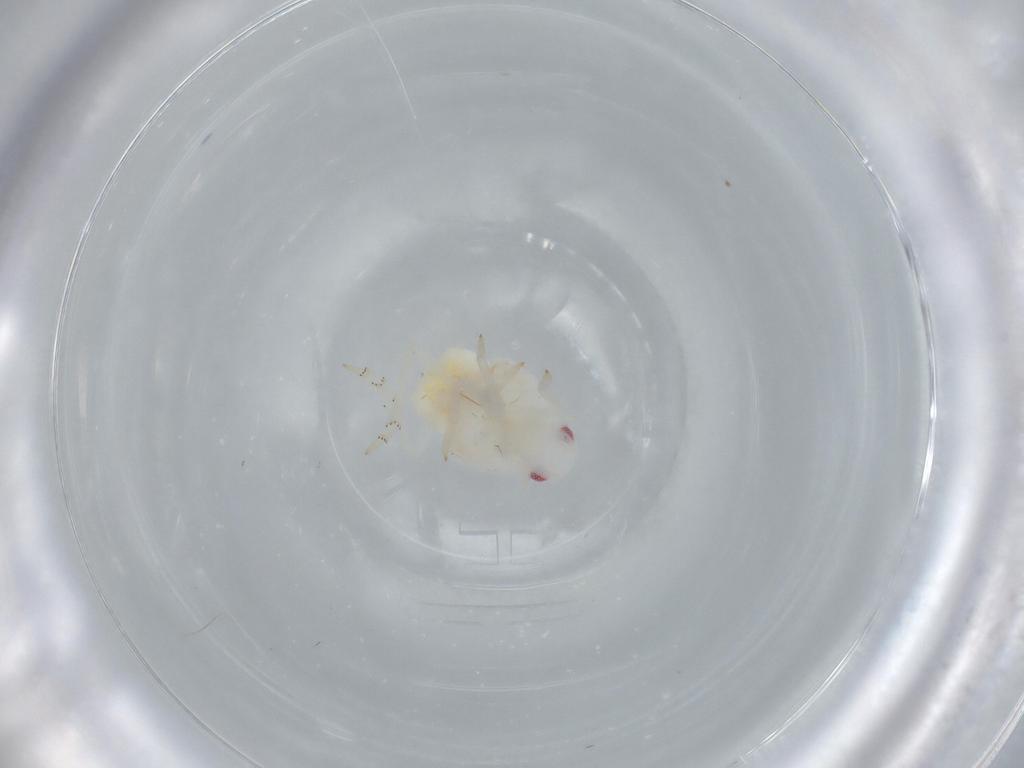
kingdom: Animalia
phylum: Arthropoda
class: Insecta
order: Hemiptera
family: Flatidae
